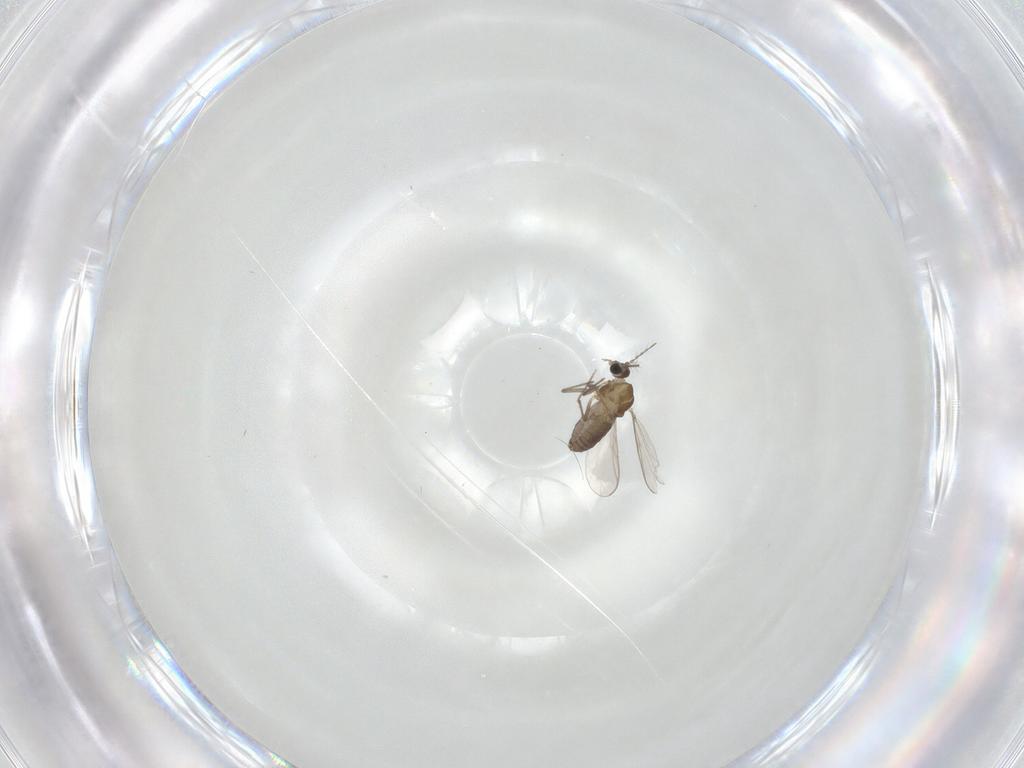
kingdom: Animalia
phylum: Arthropoda
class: Insecta
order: Diptera
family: Chironomidae
